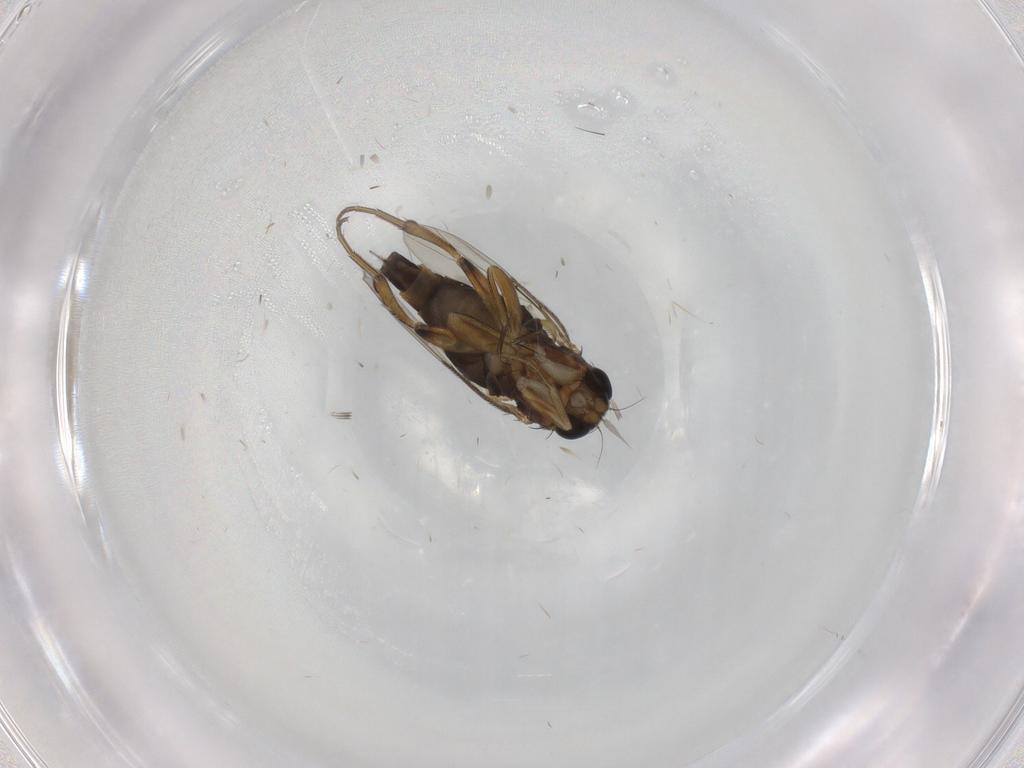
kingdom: Animalia
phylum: Arthropoda
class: Insecta
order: Diptera
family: Phoridae
